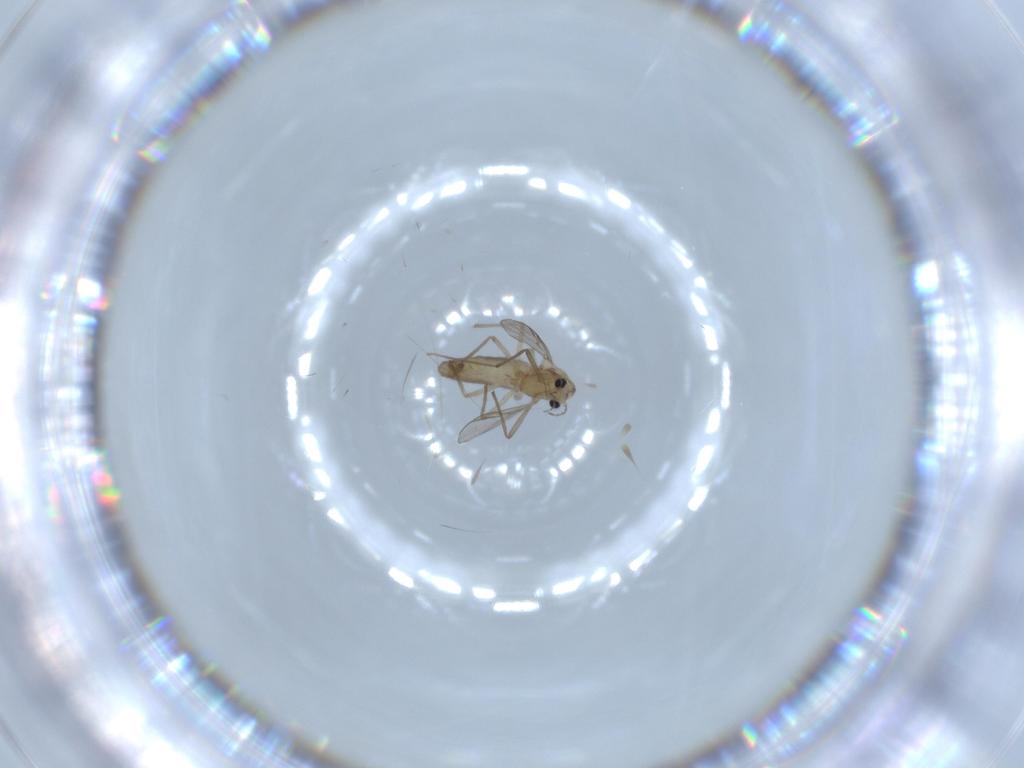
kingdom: Animalia
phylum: Arthropoda
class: Insecta
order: Diptera
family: Chironomidae
